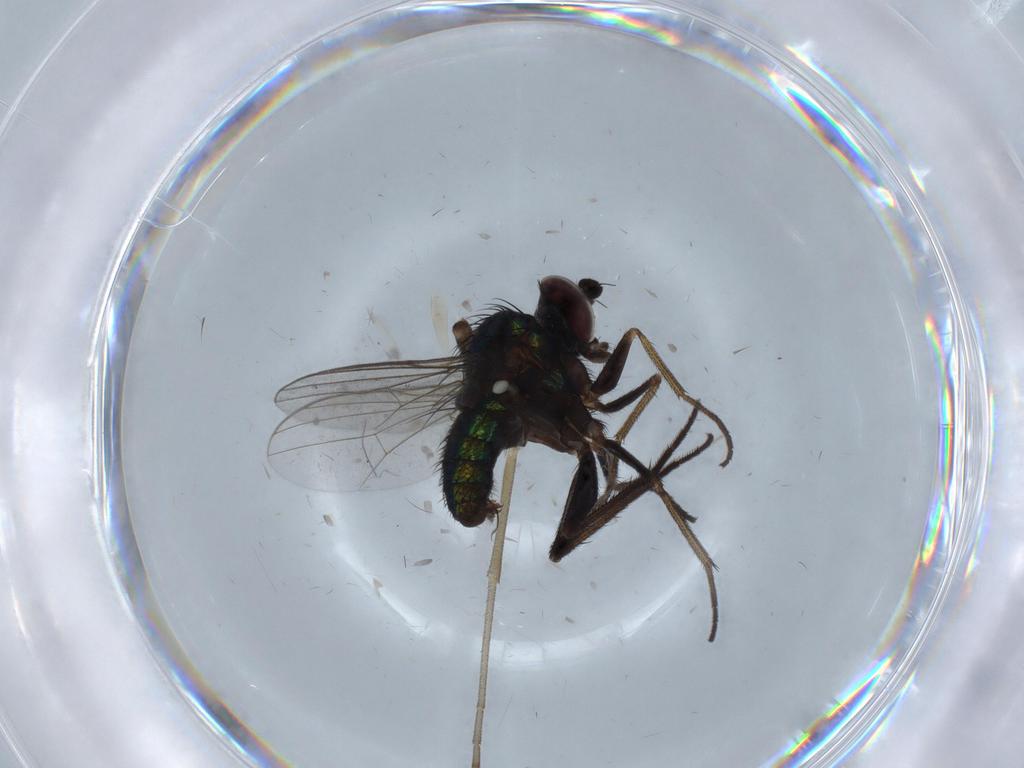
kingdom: Animalia
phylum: Arthropoda
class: Insecta
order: Diptera
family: Dolichopodidae
